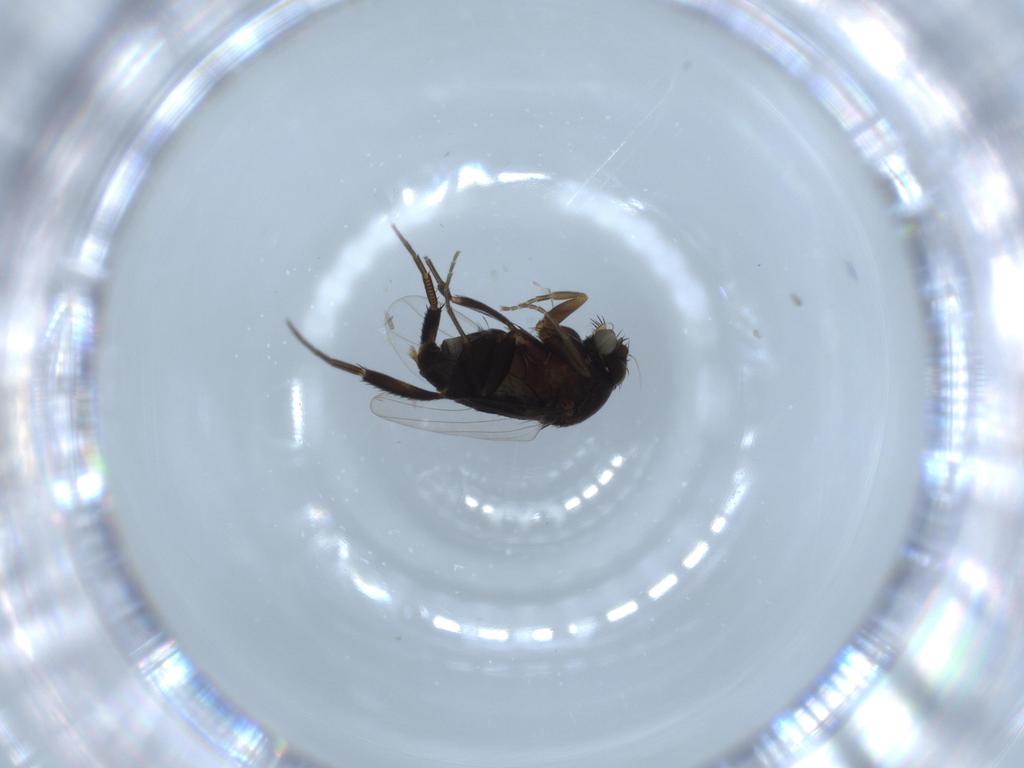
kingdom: Animalia
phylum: Arthropoda
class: Insecta
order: Diptera
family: Phoridae
